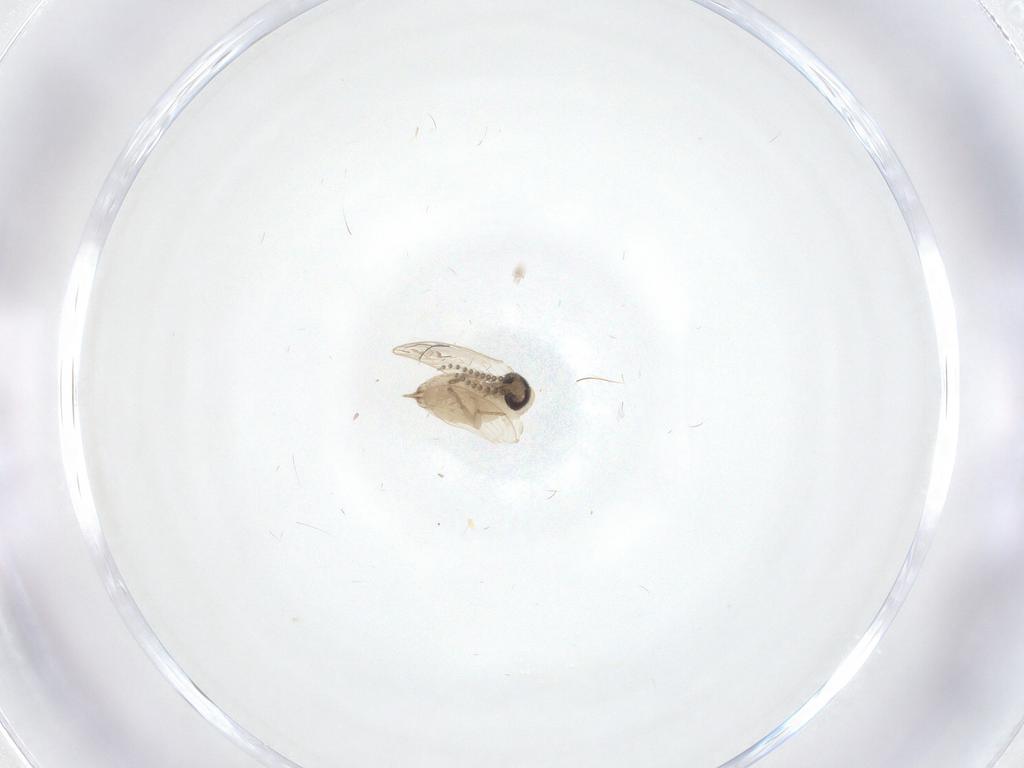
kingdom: Animalia
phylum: Arthropoda
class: Insecta
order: Diptera
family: Psychodidae
